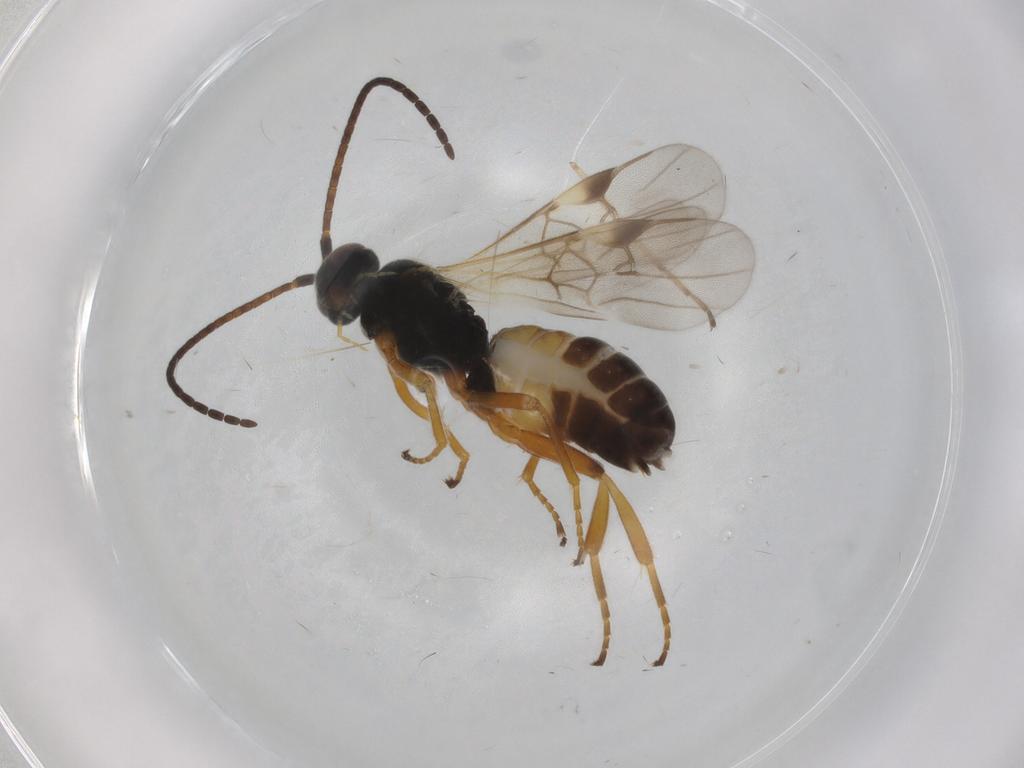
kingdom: Animalia
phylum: Arthropoda
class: Insecta
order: Hymenoptera
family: Braconidae
